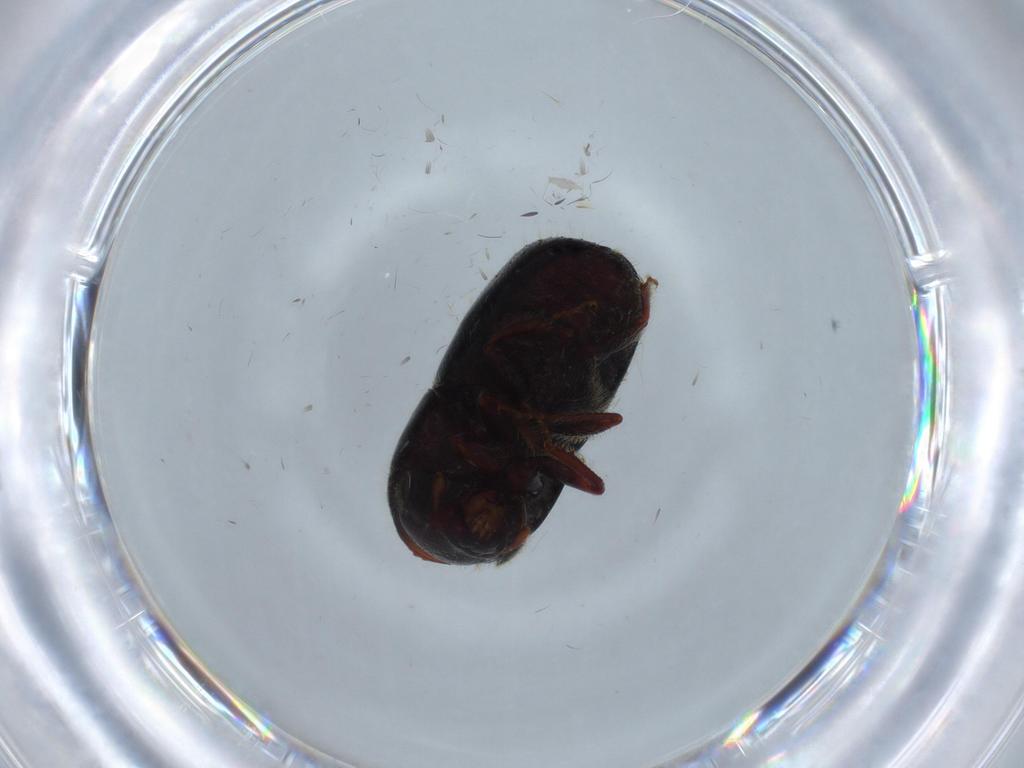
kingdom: Animalia
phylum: Arthropoda
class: Insecta
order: Coleoptera
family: Curculionidae
